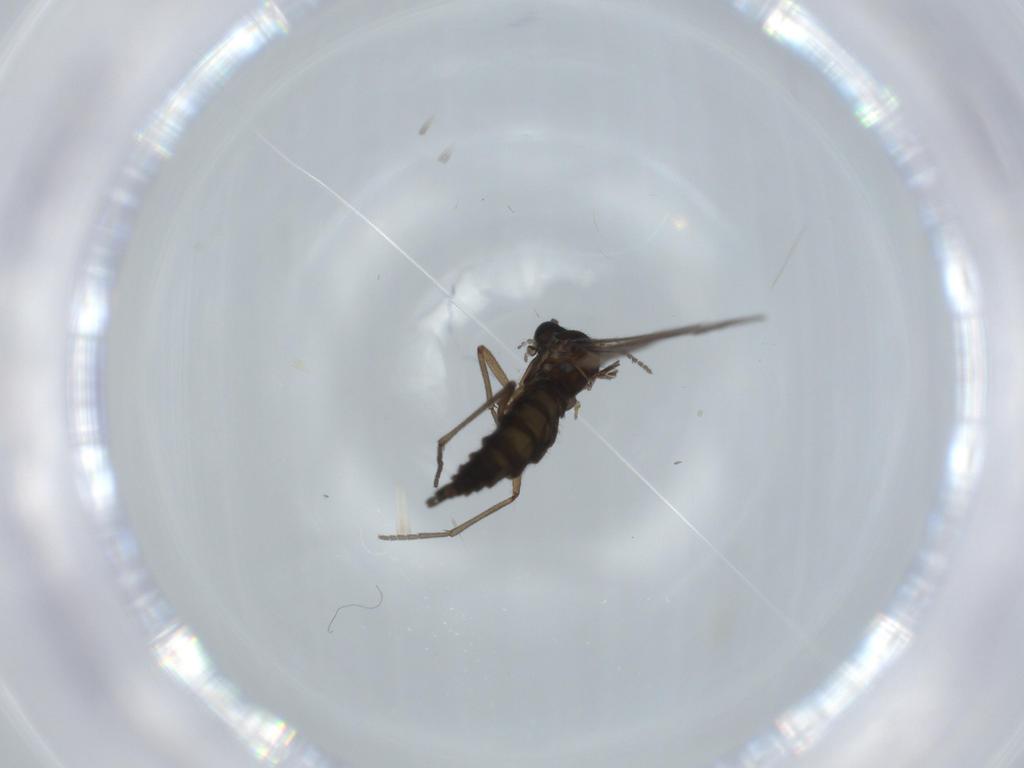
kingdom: Animalia
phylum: Arthropoda
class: Insecta
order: Diptera
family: Sciaridae
